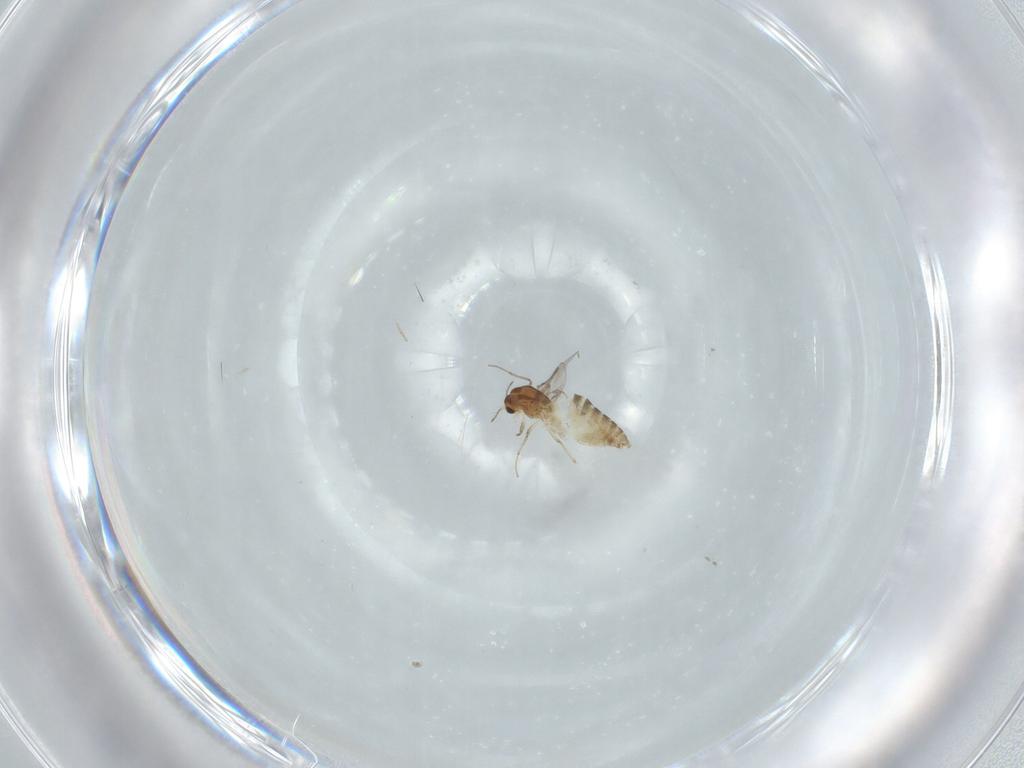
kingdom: Animalia
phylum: Arthropoda
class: Insecta
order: Diptera
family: Chironomidae
